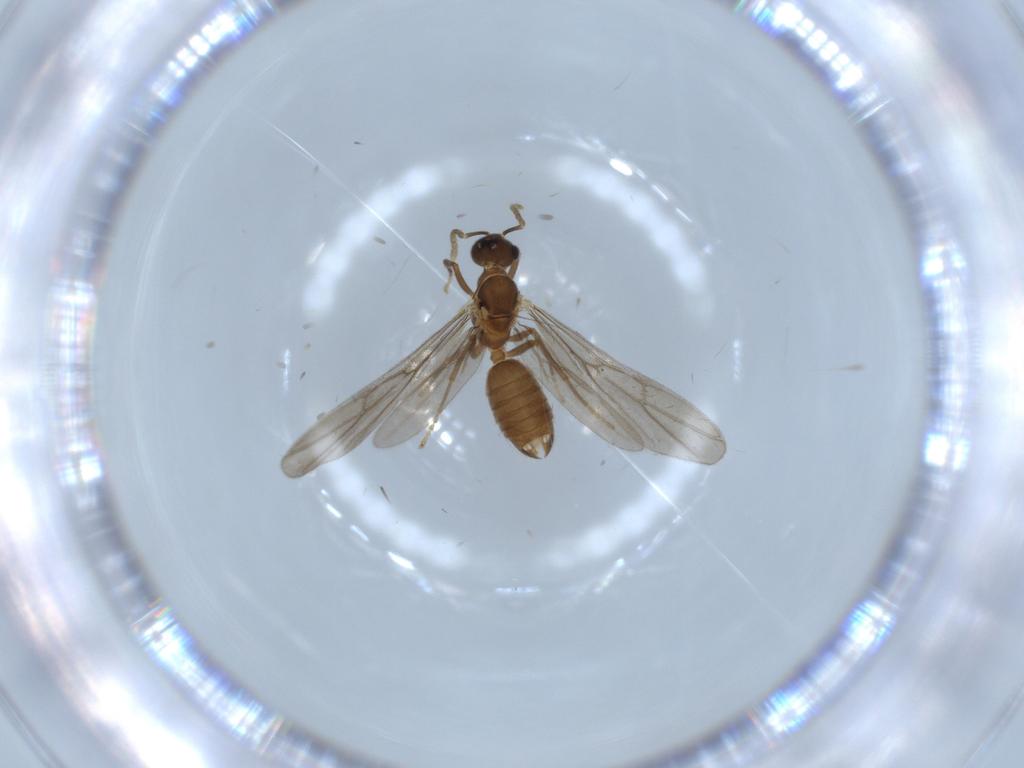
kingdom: Animalia
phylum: Arthropoda
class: Insecta
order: Hymenoptera
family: Formicidae
